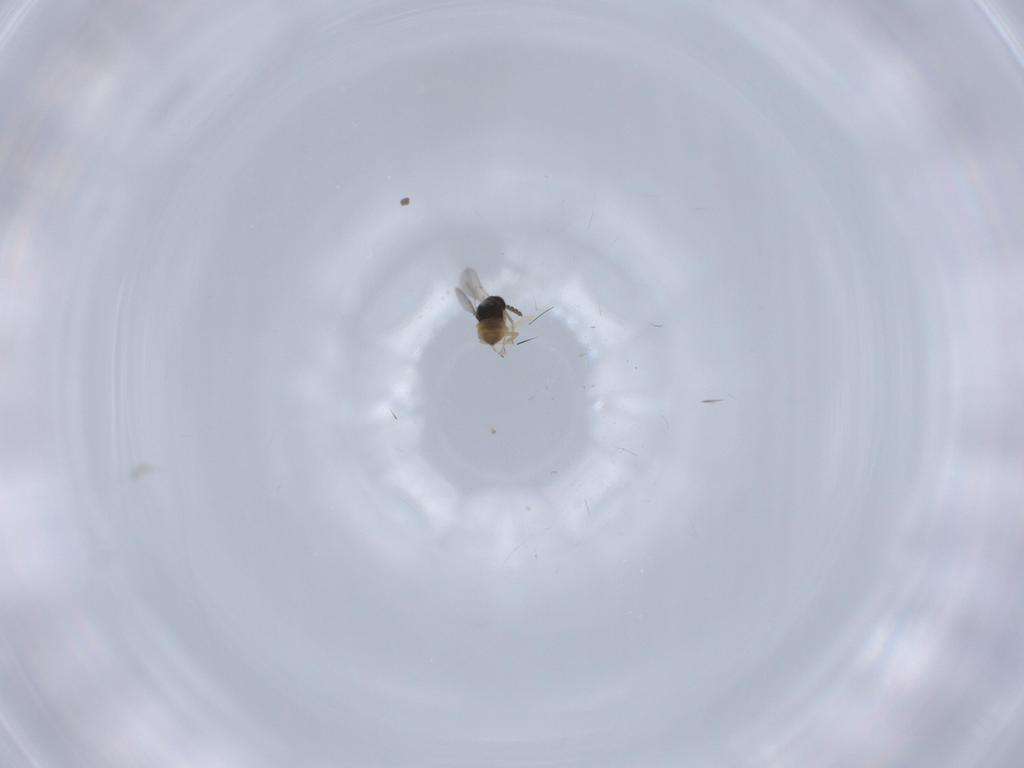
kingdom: Animalia
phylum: Arthropoda
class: Insecta
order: Hymenoptera
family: Scelionidae
